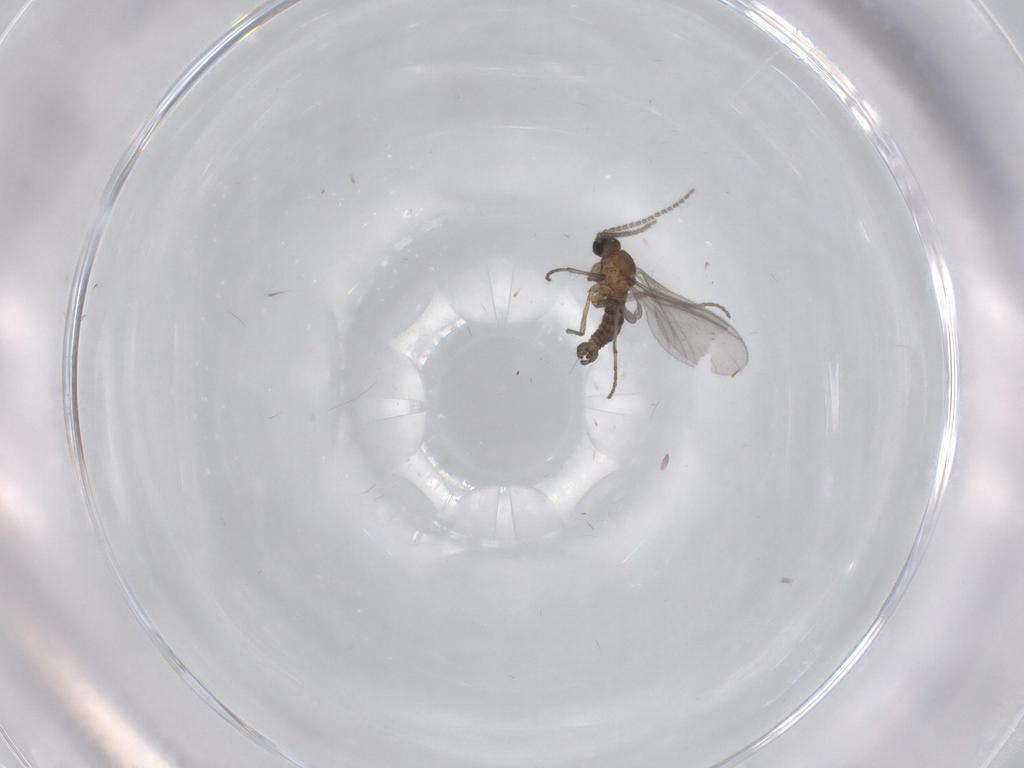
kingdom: Animalia
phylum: Arthropoda
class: Insecta
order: Diptera
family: Sciaridae
